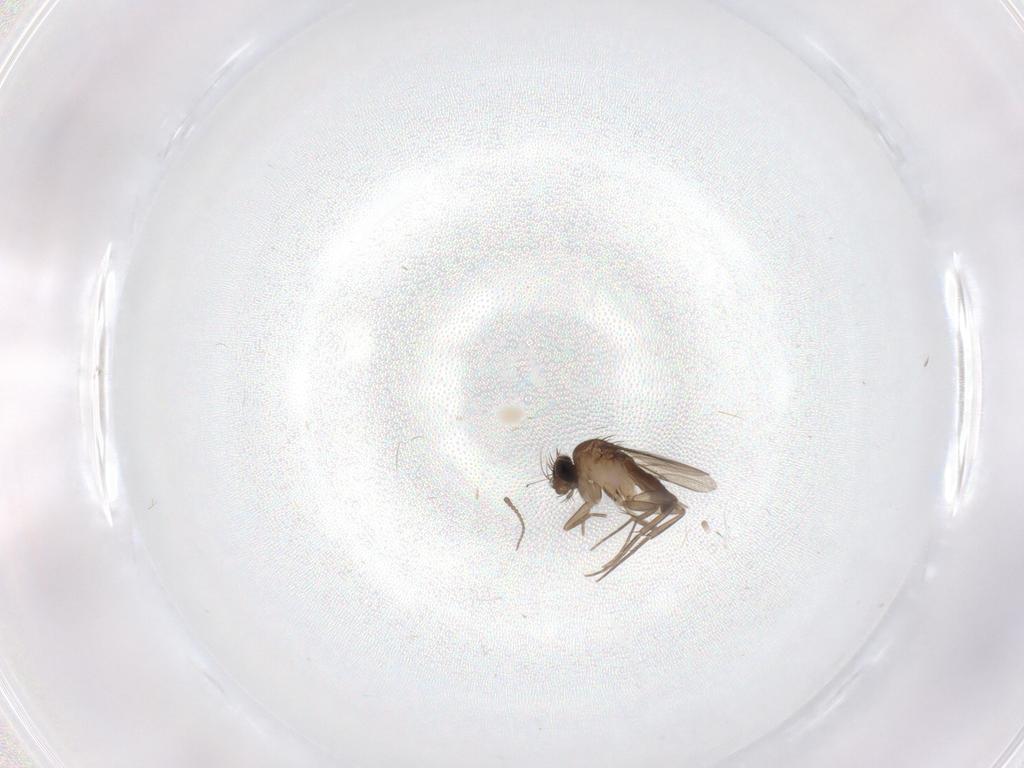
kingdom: Animalia
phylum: Arthropoda
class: Insecta
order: Diptera
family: Phoridae
